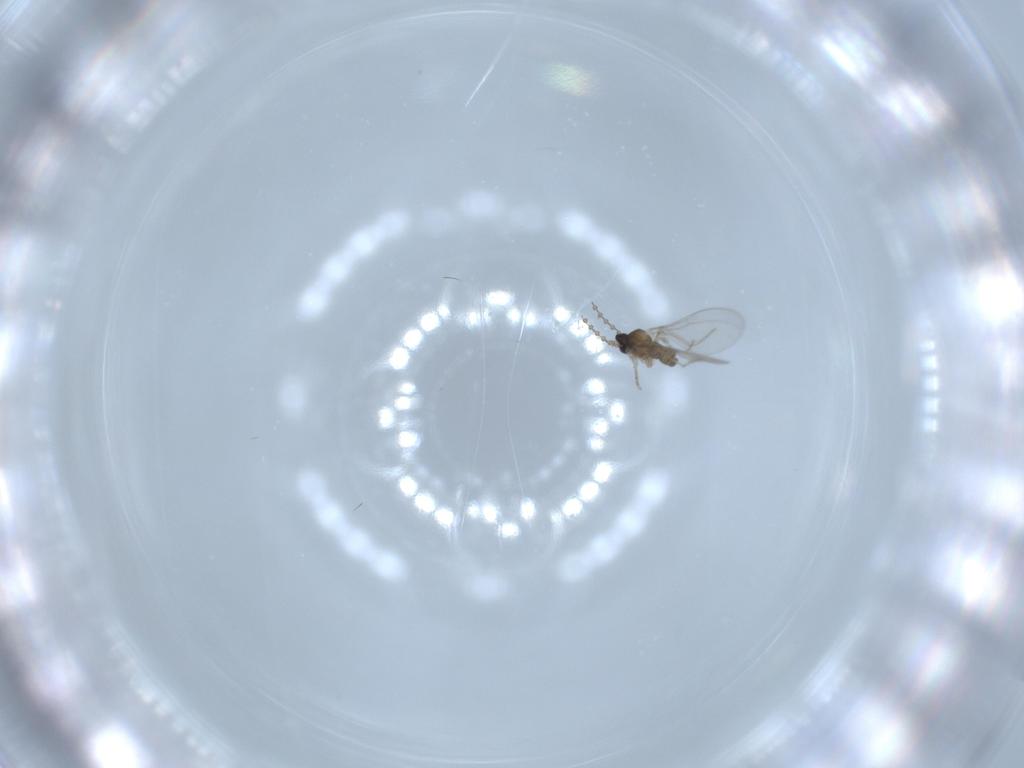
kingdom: Animalia
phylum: Arthropoda
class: Insecta
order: Diptera
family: Cecidomyiidae
